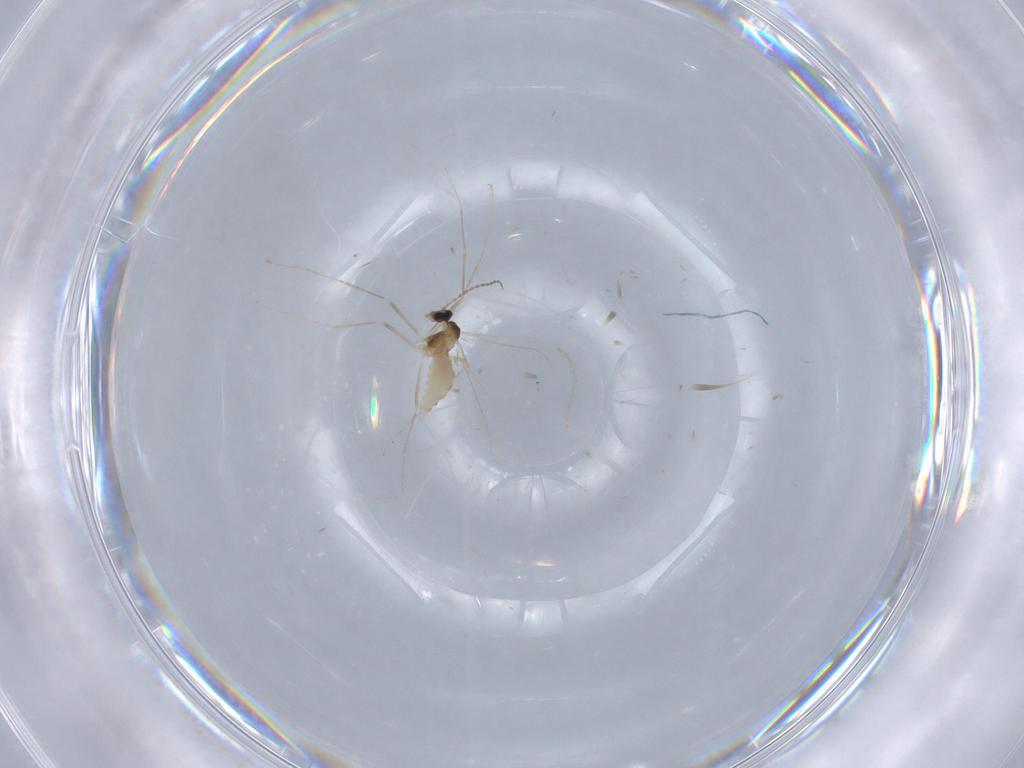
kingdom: Animalia
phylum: Arthropoda
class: Insecta
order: Diptera
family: Cecidomyiidae
